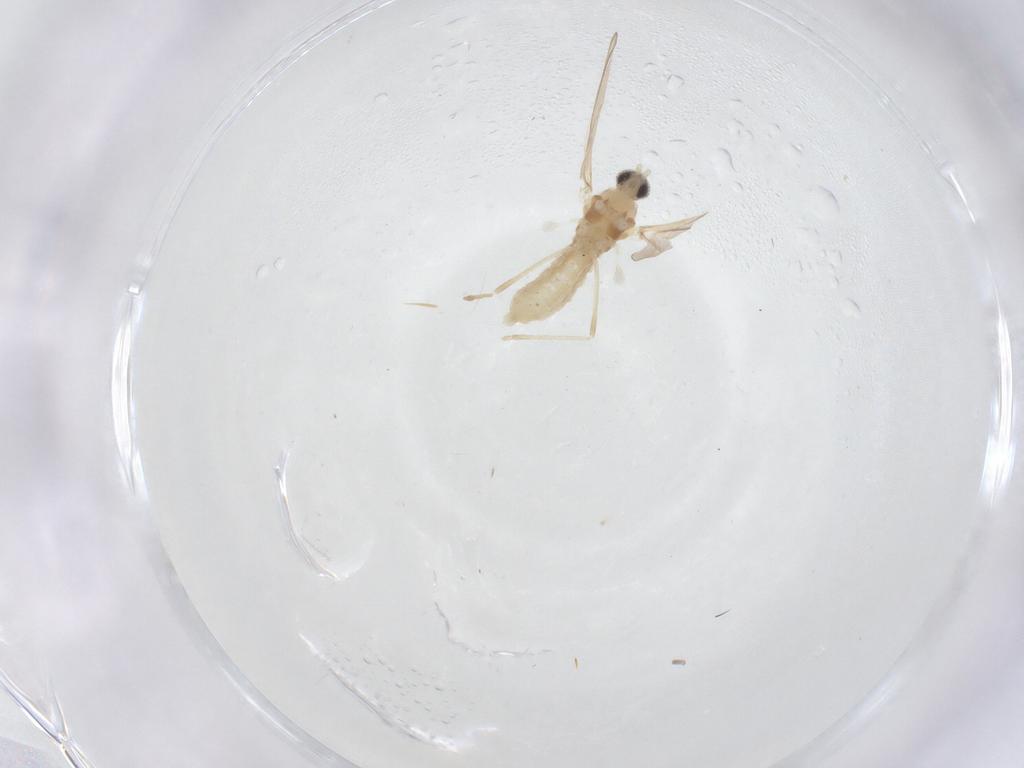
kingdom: Animalia
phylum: Arthropoda
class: Insecta
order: Diptera
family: Cecidomyiidae
